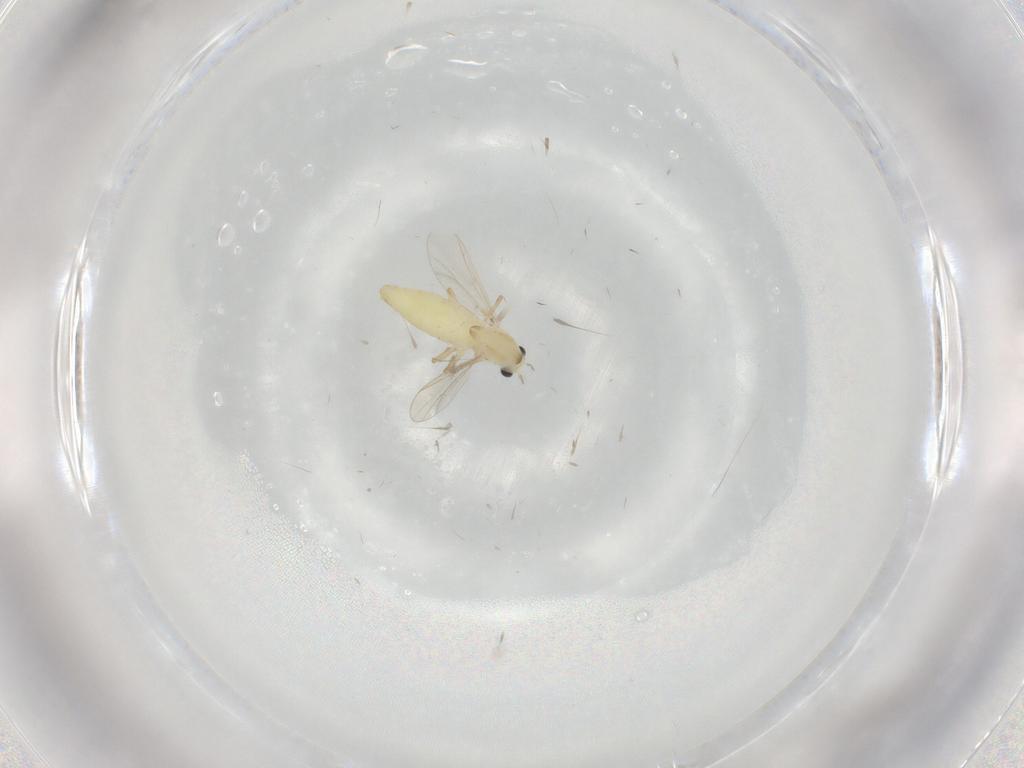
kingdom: Animalia
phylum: Arthropoda
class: Insecta
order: Diptera
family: Chironomidae
